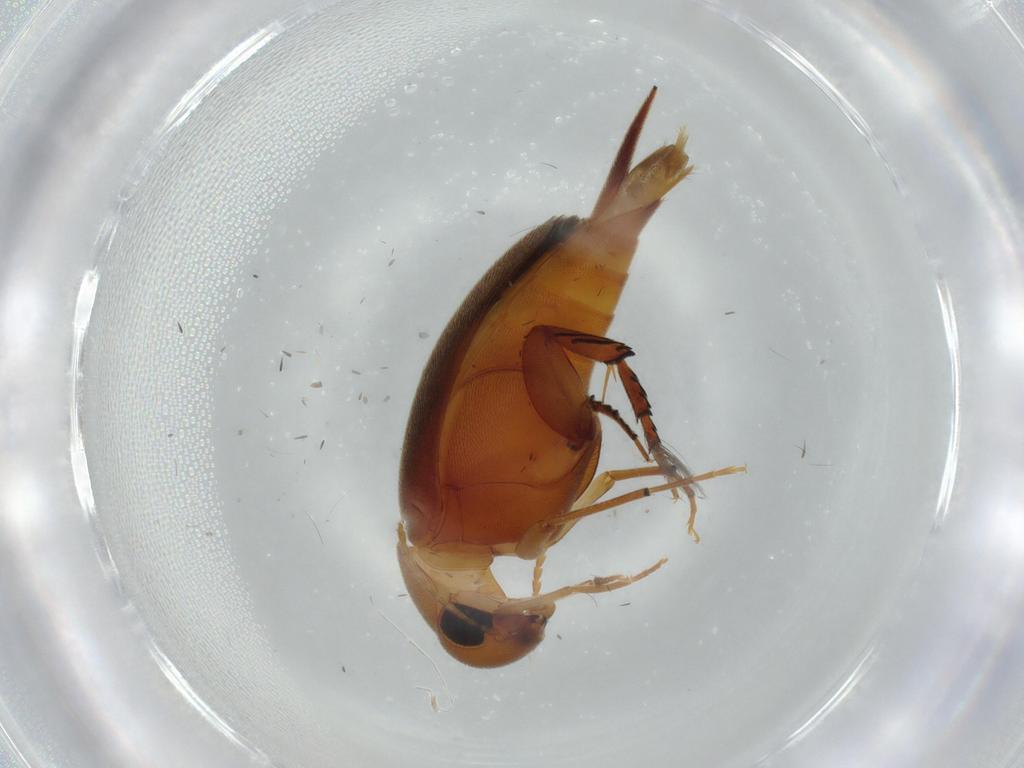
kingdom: Animalia
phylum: Arthropoda
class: Insecta
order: Coleoptera
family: Mordellidae
